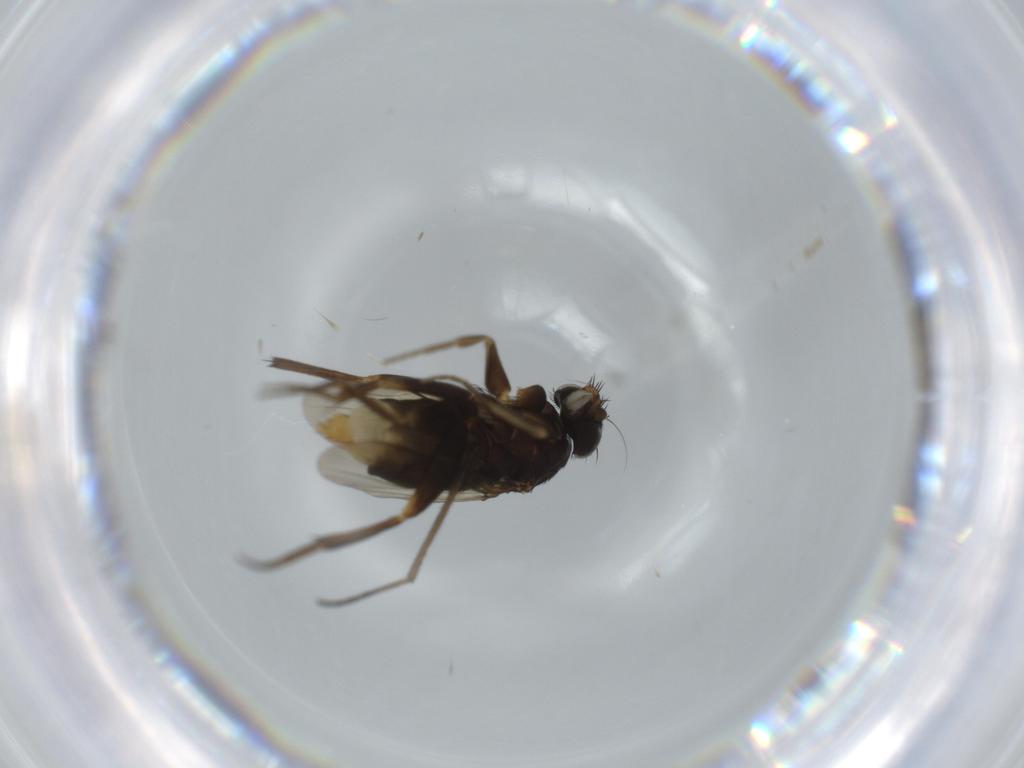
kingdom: Animalia
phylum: Arthropoda
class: Insecta
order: Diptera
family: Phoridae
